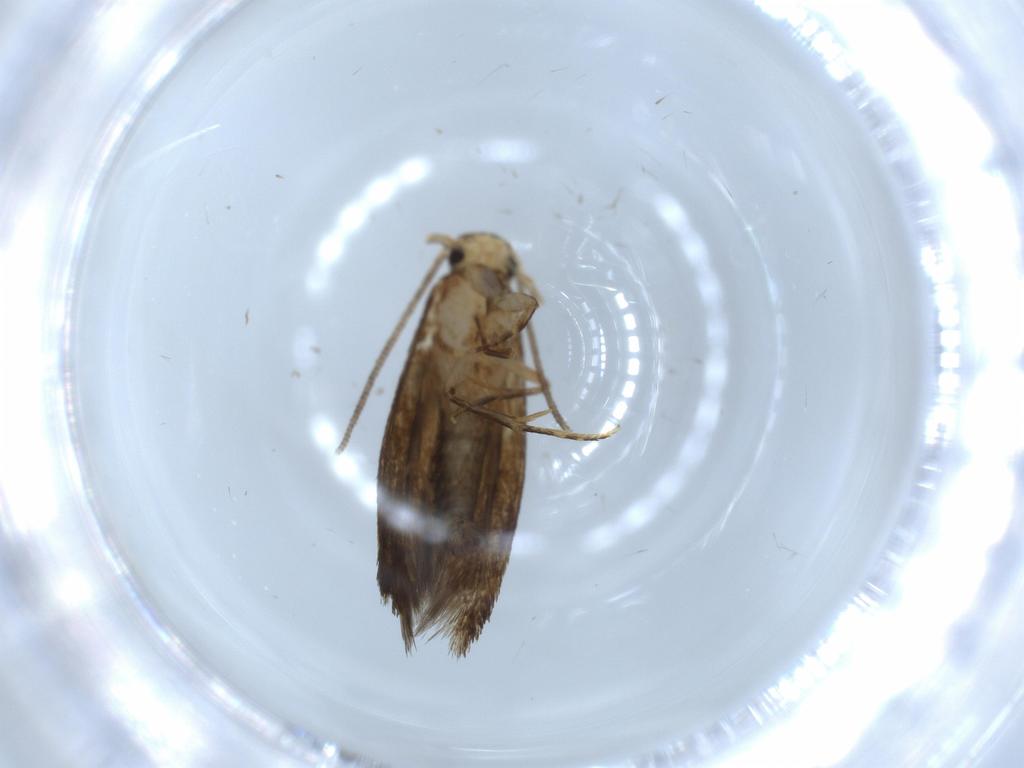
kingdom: Animalia
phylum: Arthropoda
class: Insecta
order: Lepidoptera
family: Tineidae
